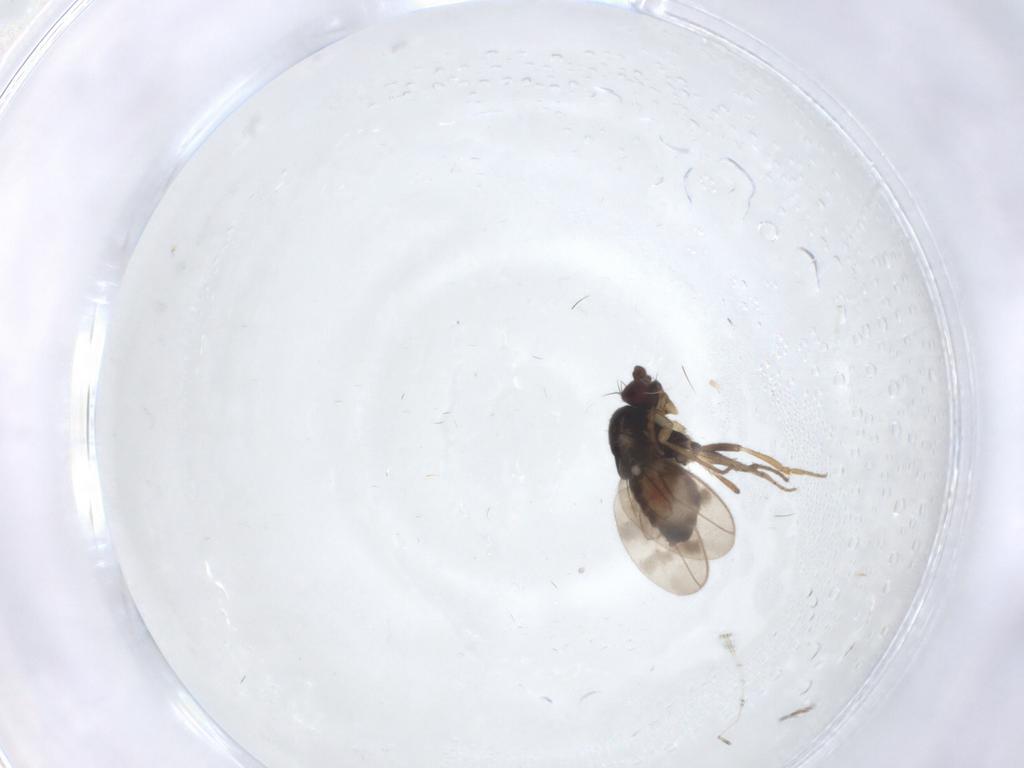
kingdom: Animalia
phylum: Arthropoda
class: Insecta
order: Diptera
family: Sphaeroceridae
